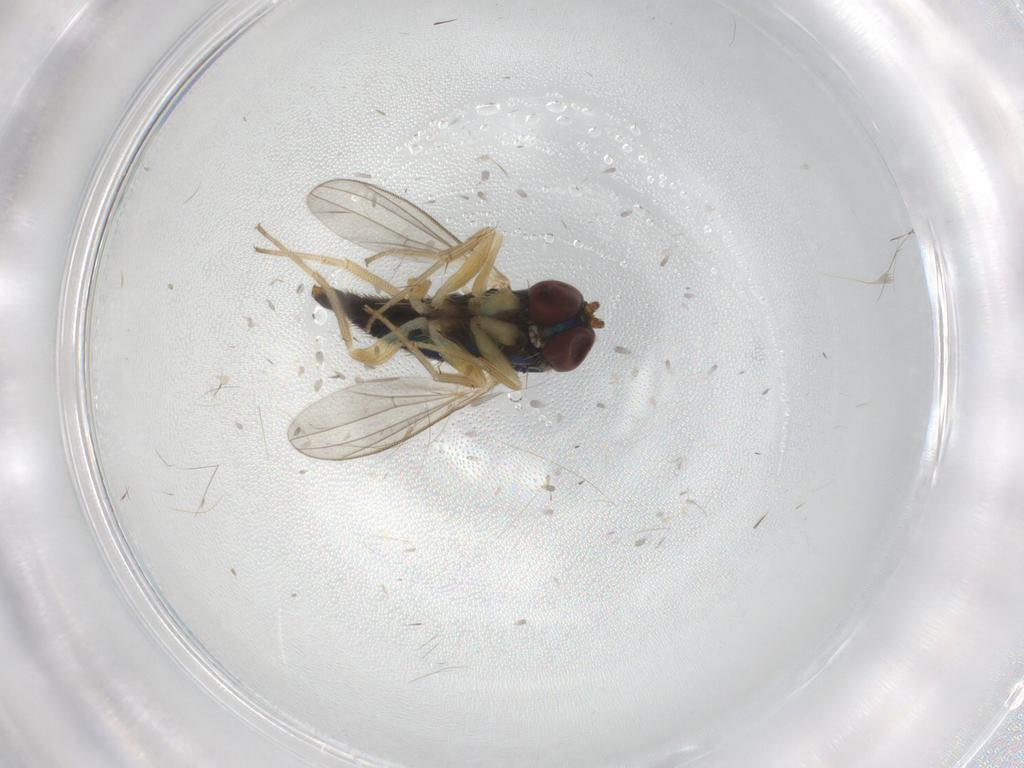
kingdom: Animalia
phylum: Arthropoda
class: Insecta
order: Diptera
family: Dolichopodidae
